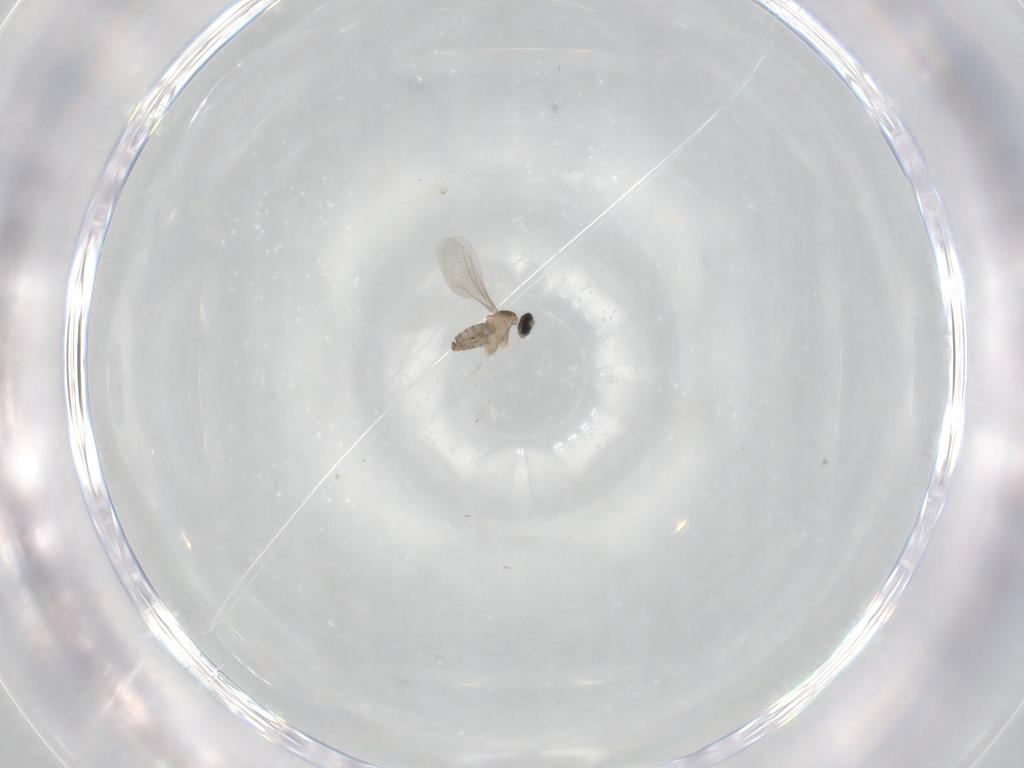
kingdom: Animalia
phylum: Arthropoda
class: Insecta
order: Diptera
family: Cecidomyiidae
